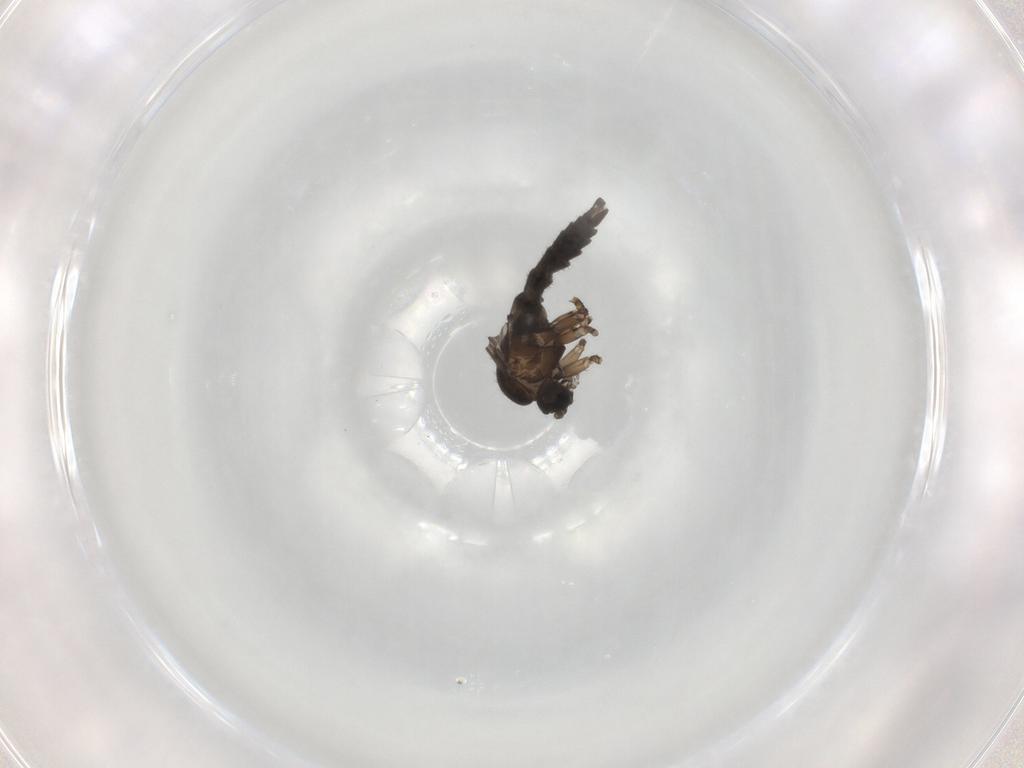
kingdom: Animalia
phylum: Arthropoda
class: Insecta
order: Diptera
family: Sciaridae
